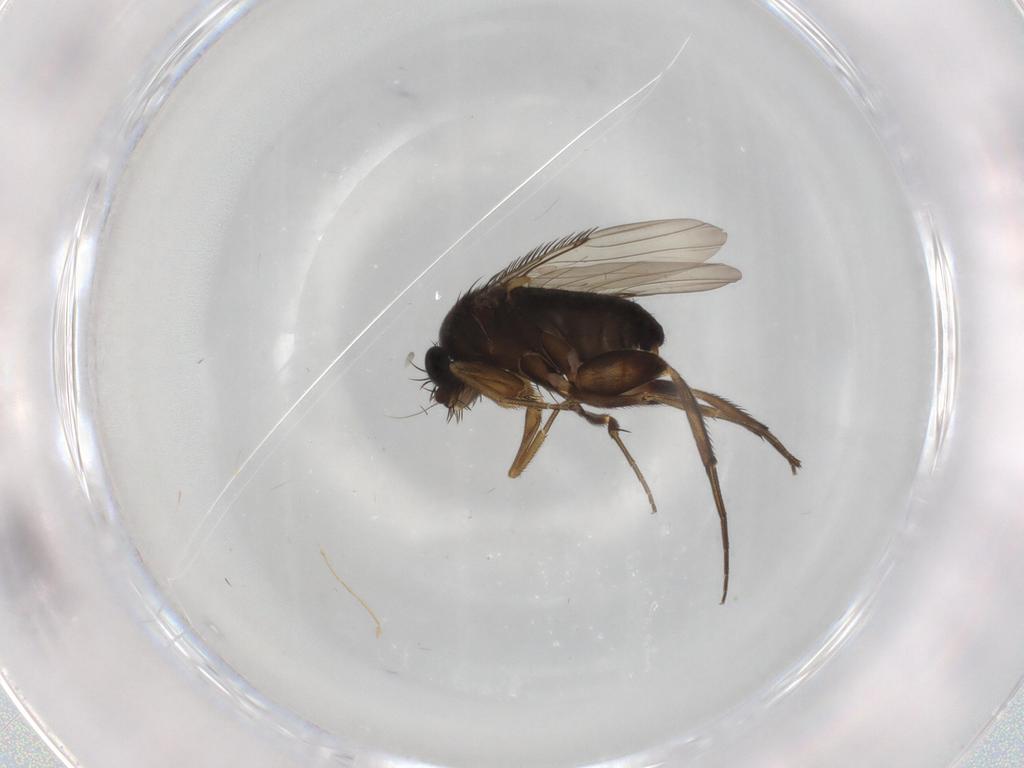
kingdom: Animalia
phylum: Arthropoda
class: Insecta
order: Diptera
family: Phoridae
